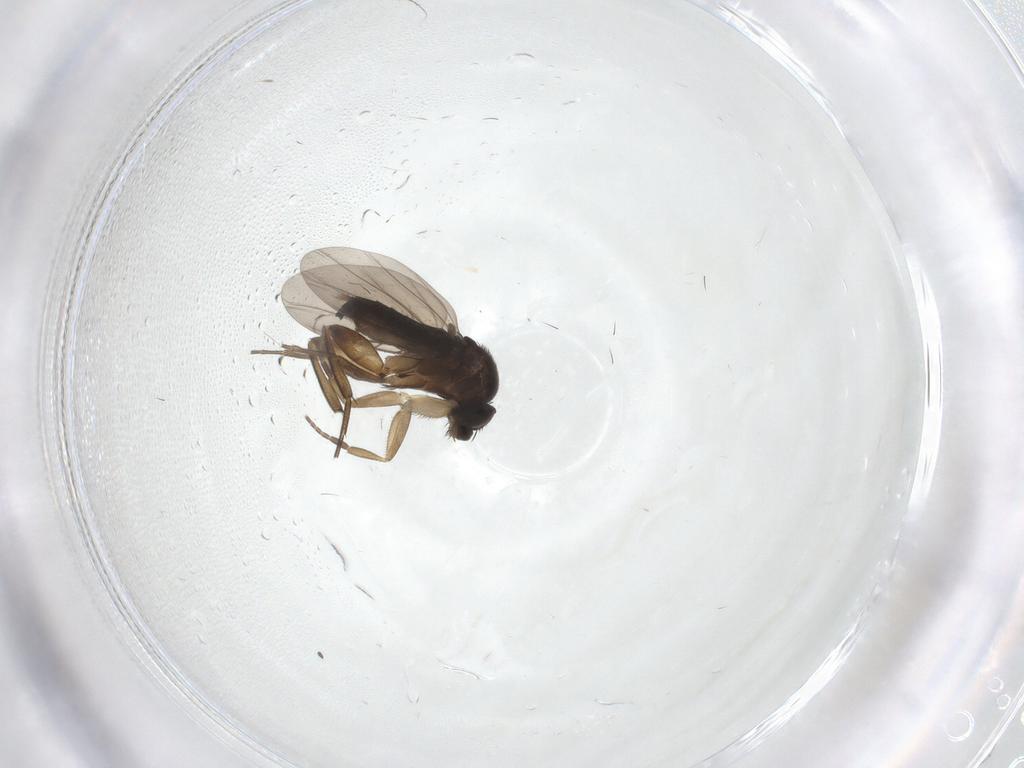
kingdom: Animalia
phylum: Arthropoda
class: Insecta
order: Diptera
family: Phoridae
